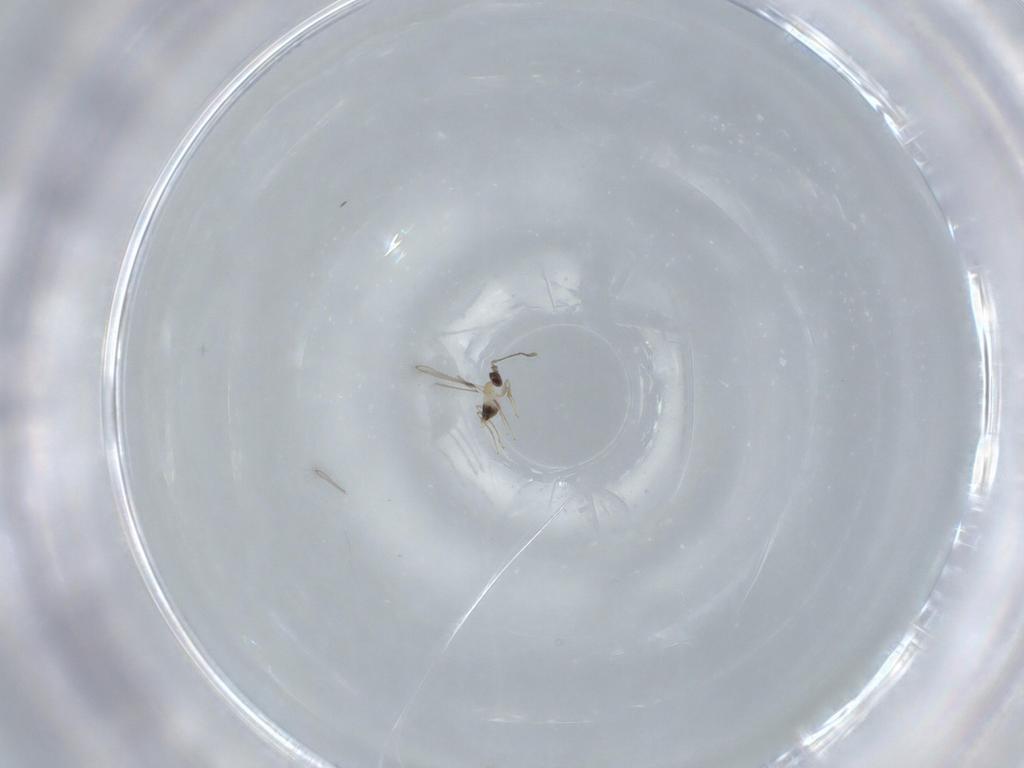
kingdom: Animalia
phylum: Arthropoda
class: Insecta
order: Hymenoptera
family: Mymaridae
